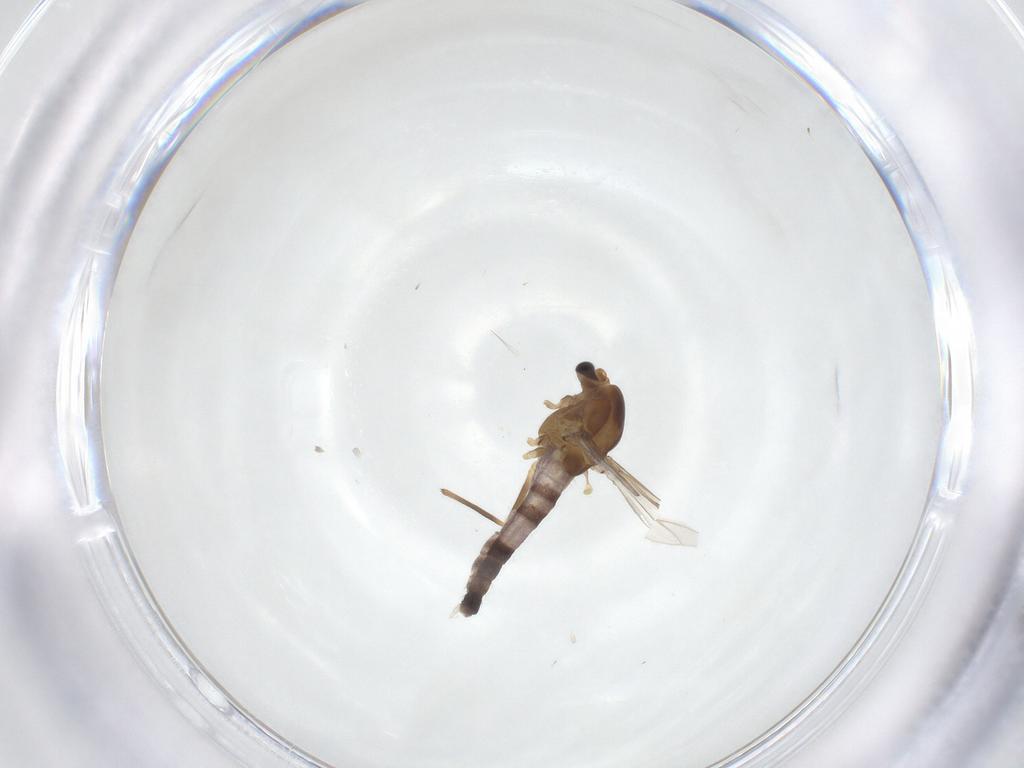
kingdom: Animalia
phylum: Arthropoda
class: Insecta
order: Diptera
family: Chironomidae
